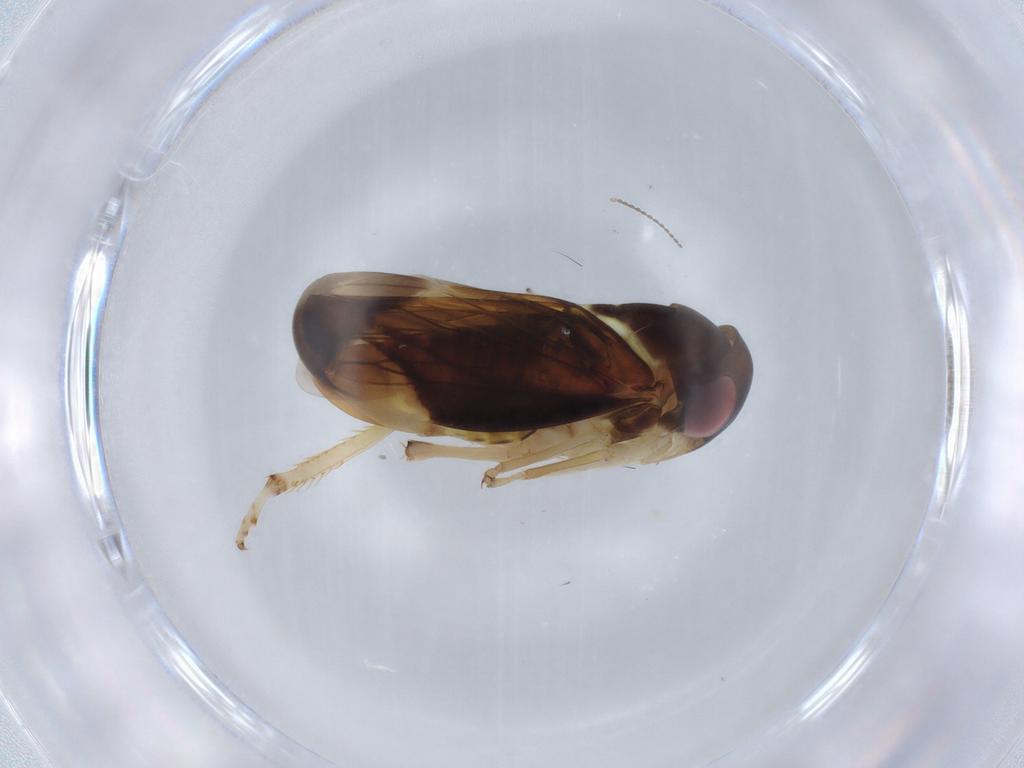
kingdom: Animalia
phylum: Arthropoda
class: Insecta
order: Hemiptera
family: Cicadellidae
